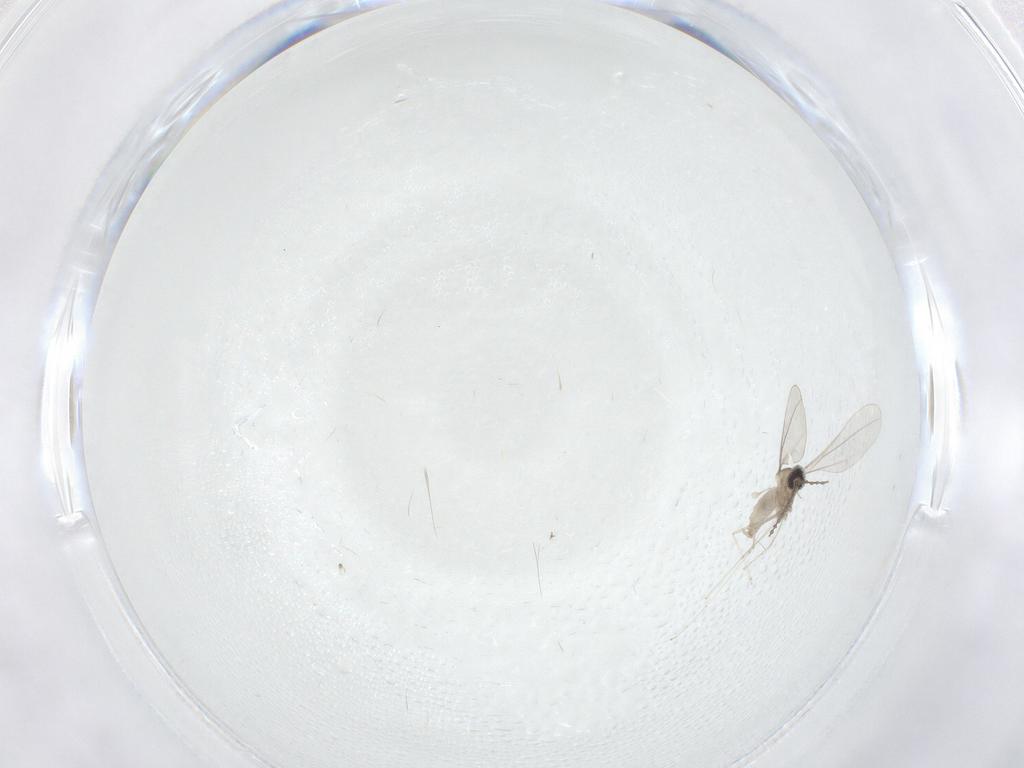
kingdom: Animalia
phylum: Arthropoda
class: Insecta
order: Diptera
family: Cecidomyiidae
